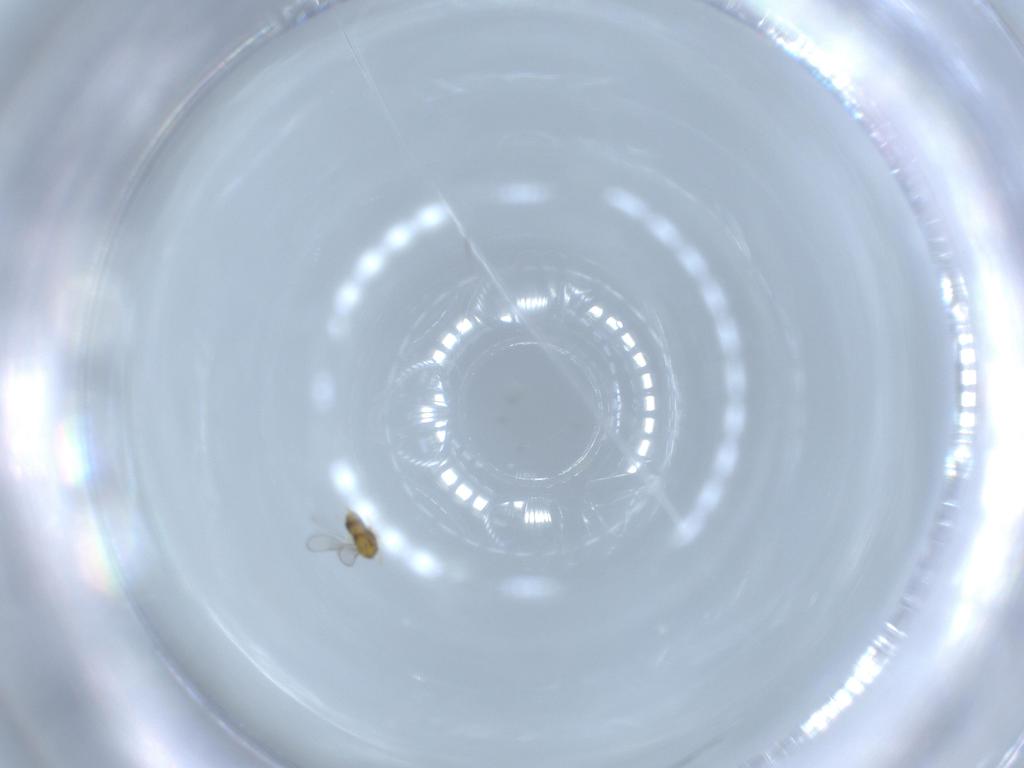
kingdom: Animalia
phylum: Arthropoda
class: Insecta
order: Hymenoptera
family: Aphelinidae
